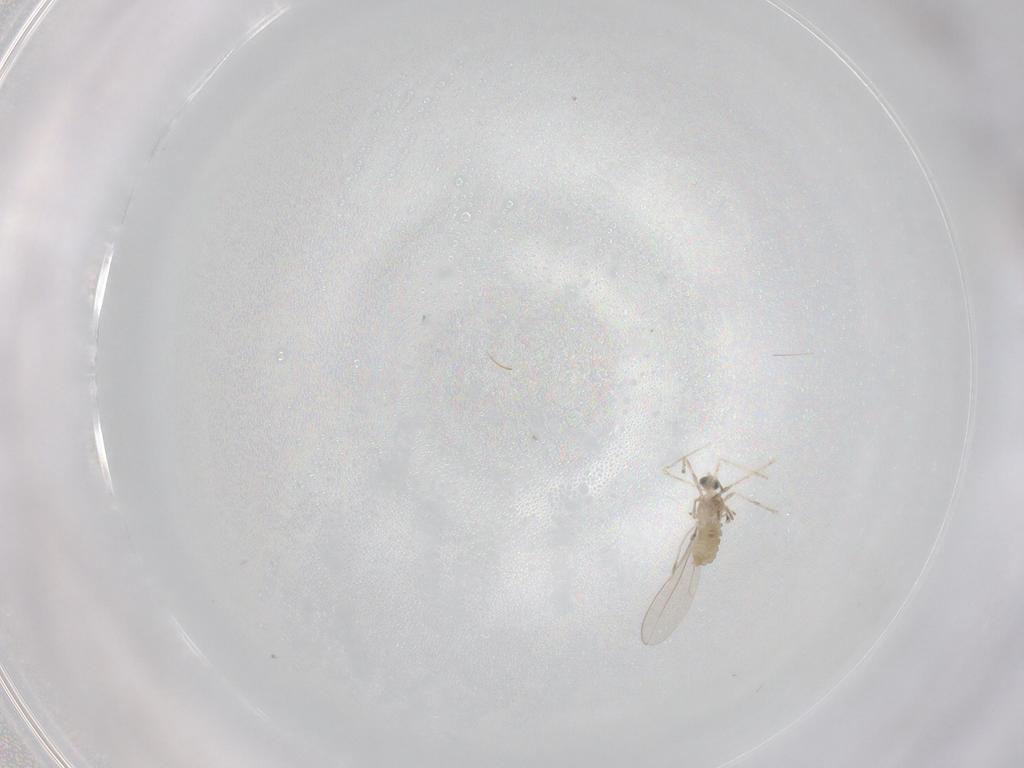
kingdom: Animalia
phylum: Arthropoda
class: Insecta
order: Diptera
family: Cecidomyiidae
